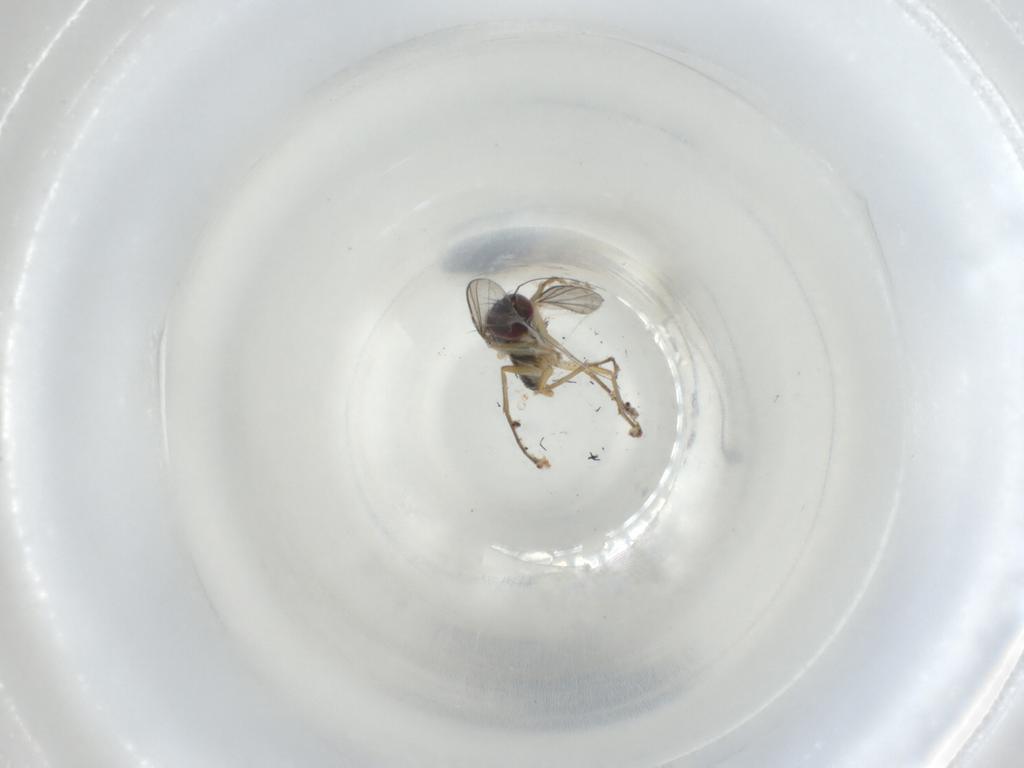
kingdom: Animalia
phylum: Arthropoda
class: Insecta
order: Diptera
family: Dolichopodidae
